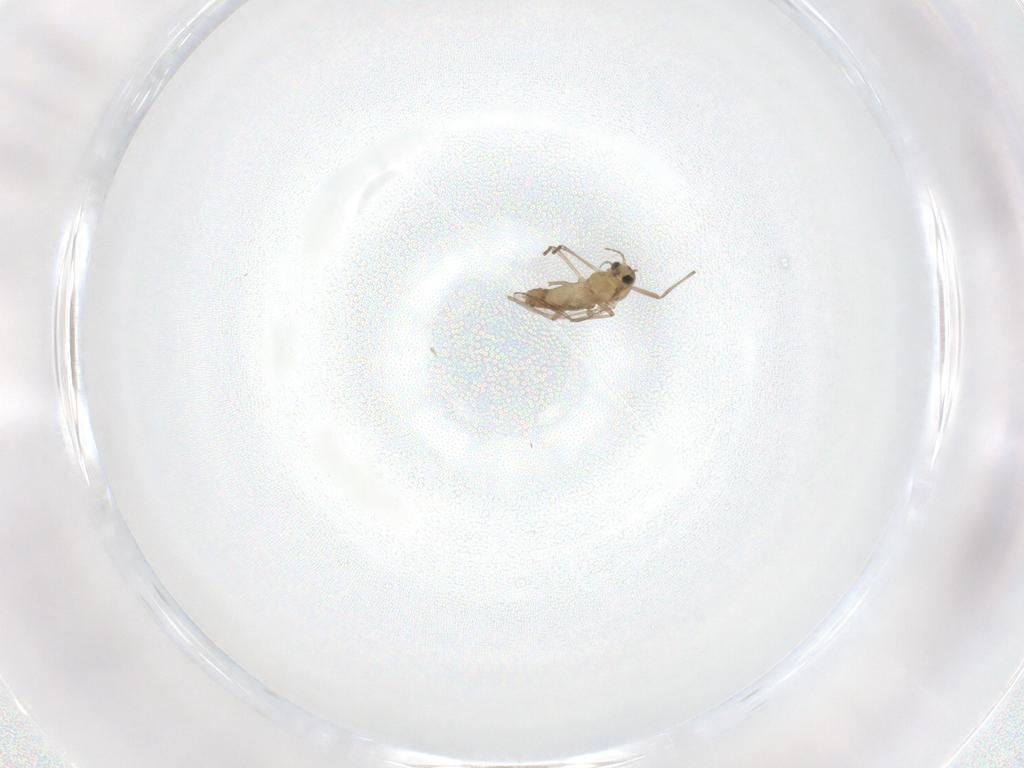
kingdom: Animalia
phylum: Arthropoda
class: Insecta
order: Diptera
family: Chironomidae
